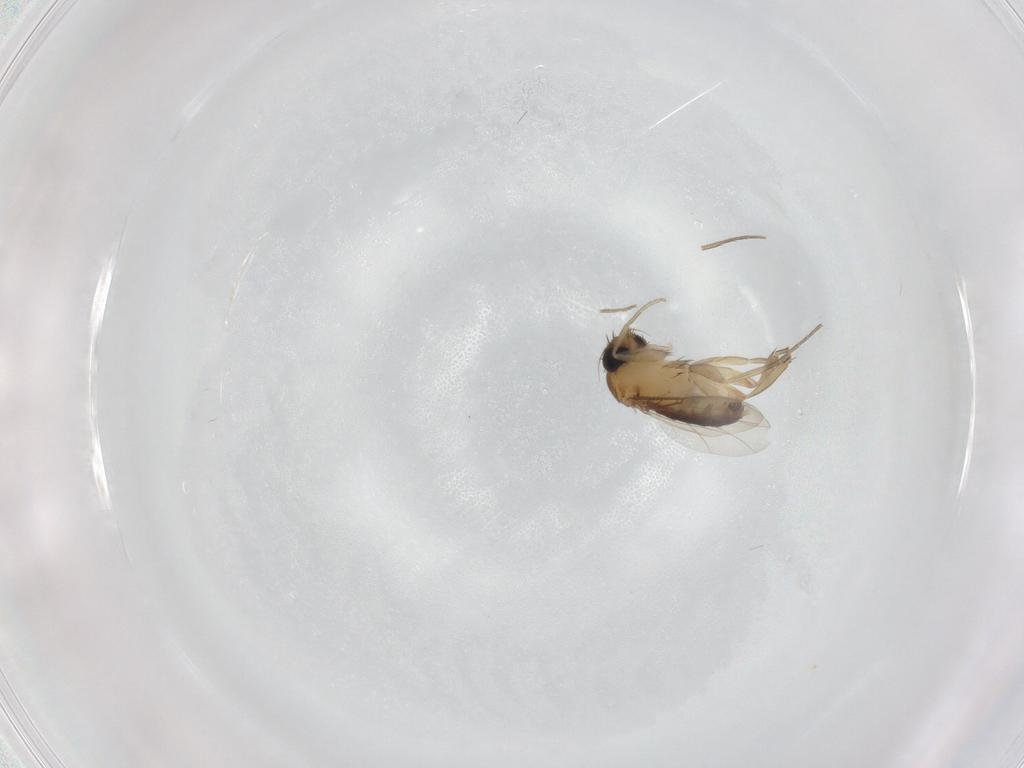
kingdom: Animalia
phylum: Arthropoda
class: Insecta
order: Diptera
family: Phoridae
